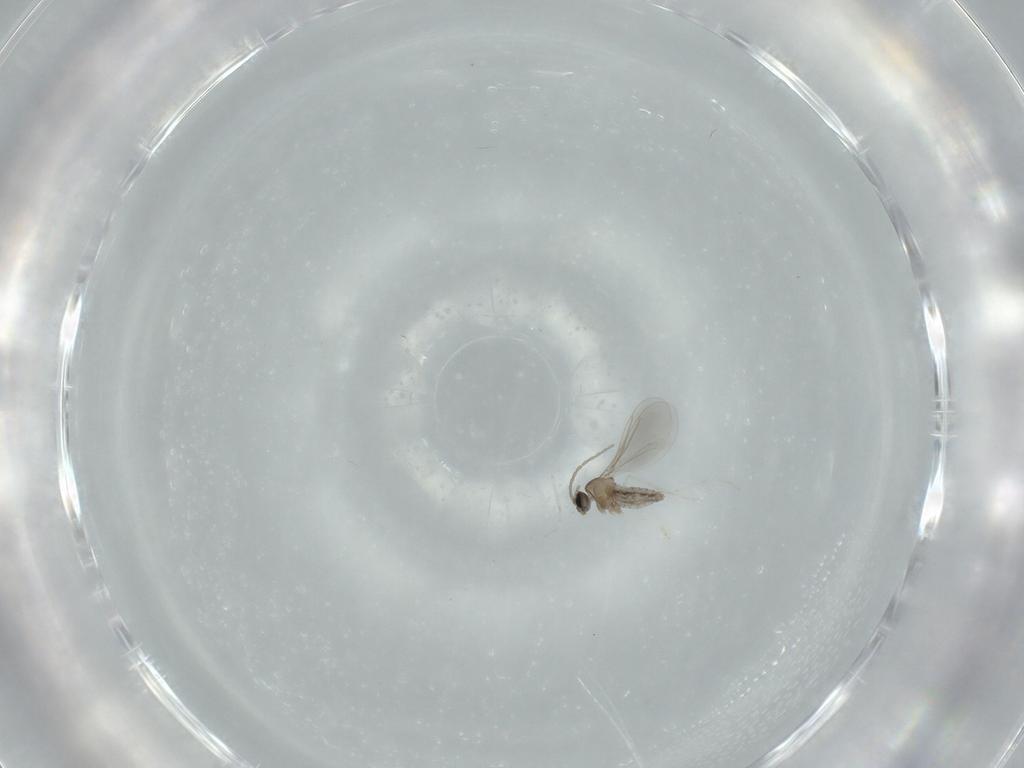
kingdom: Animalia
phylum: Arthropoda
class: Insecta
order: Diptera
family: Cecidomyiidae
